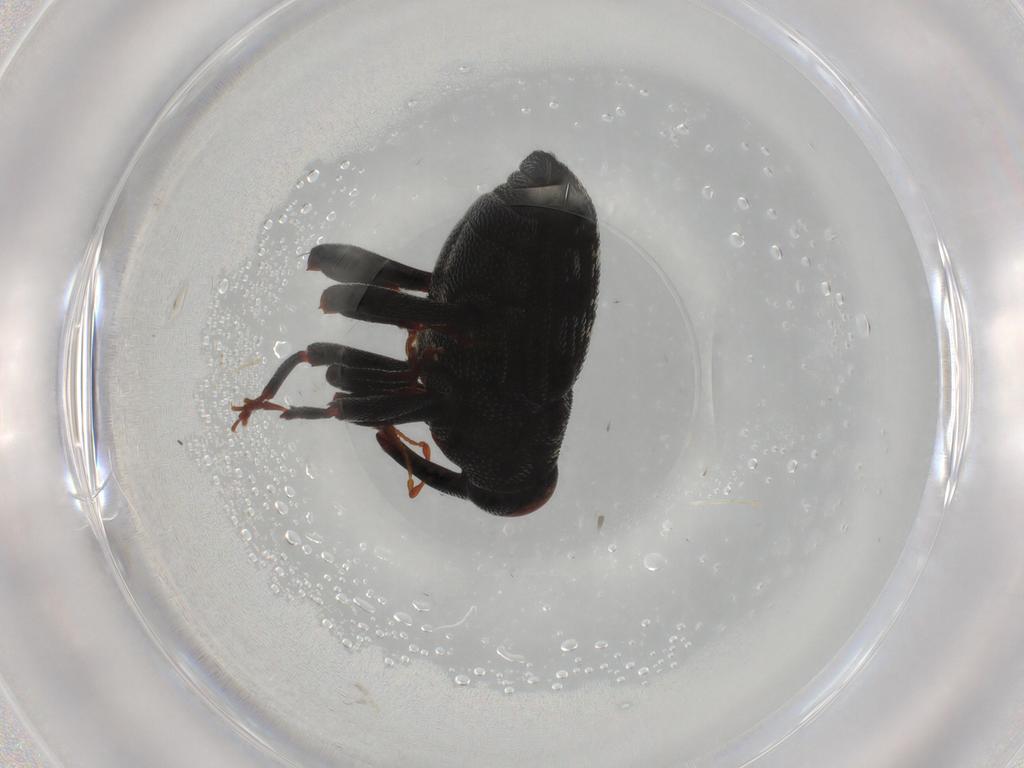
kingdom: Animalia
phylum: Arthropoda
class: Insecta
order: Coleoptera
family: Curculionidae
